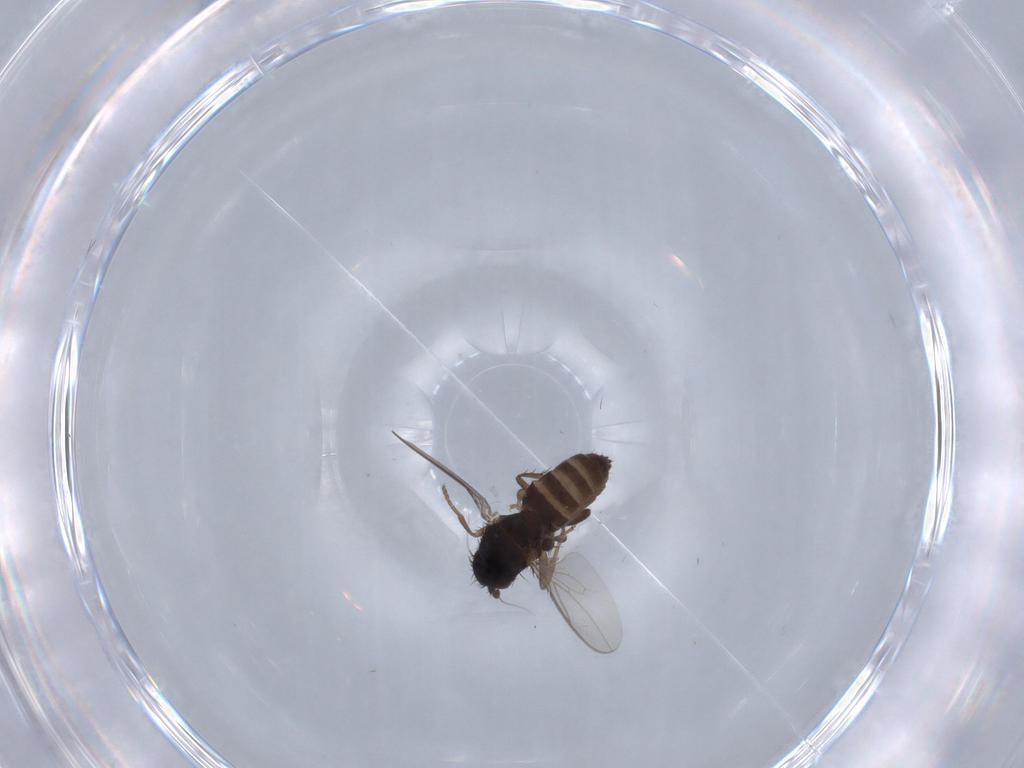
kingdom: Animalia
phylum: Arthropoda
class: Insecta
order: Diptera
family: Sphaeroceridae
